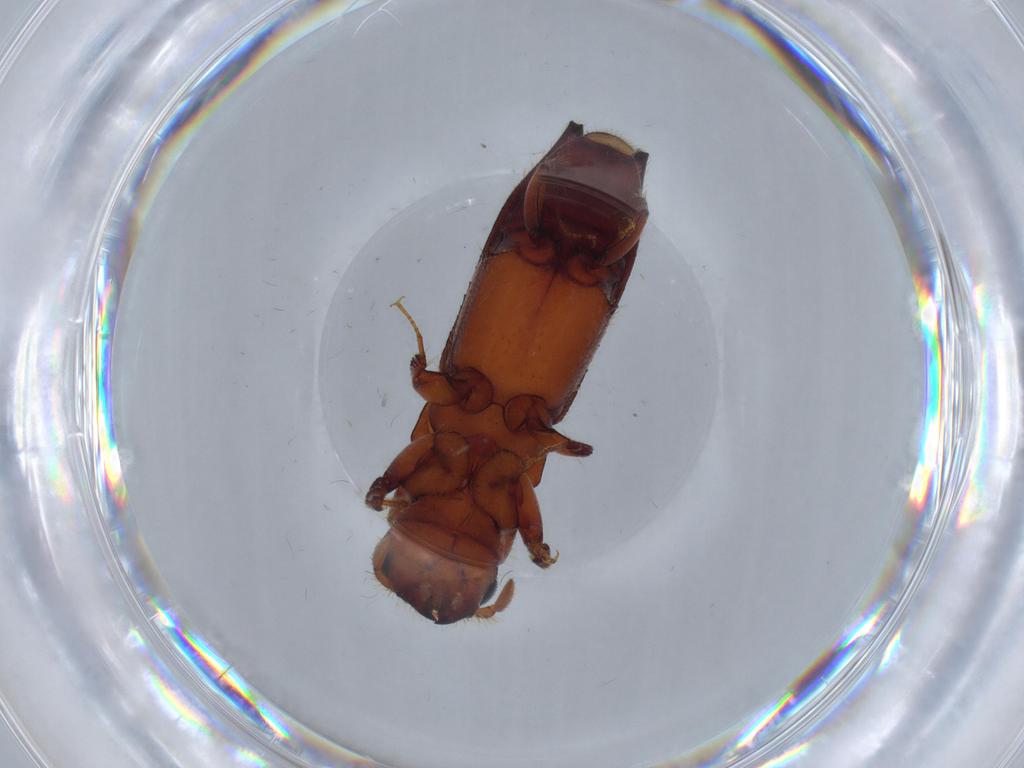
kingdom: Animalia
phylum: Arthropoda
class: Insecta
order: Coleoptera
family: Curculionidae
